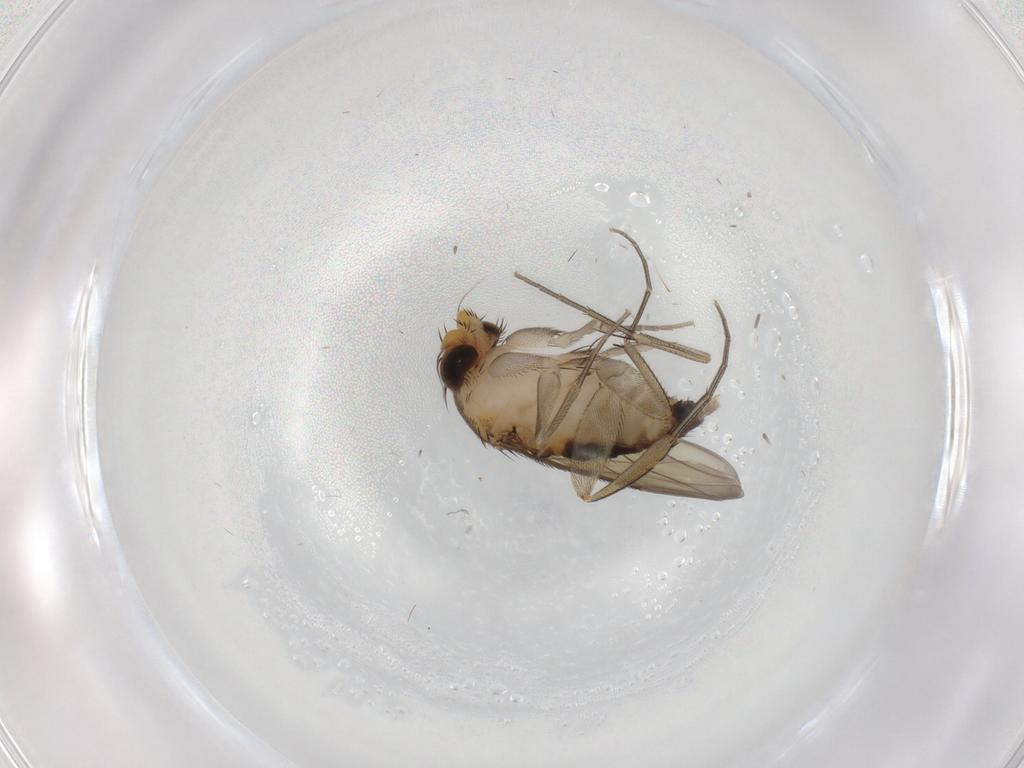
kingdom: Animalia
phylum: Arthropoda
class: Insecta
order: Diptera
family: Phoridae
